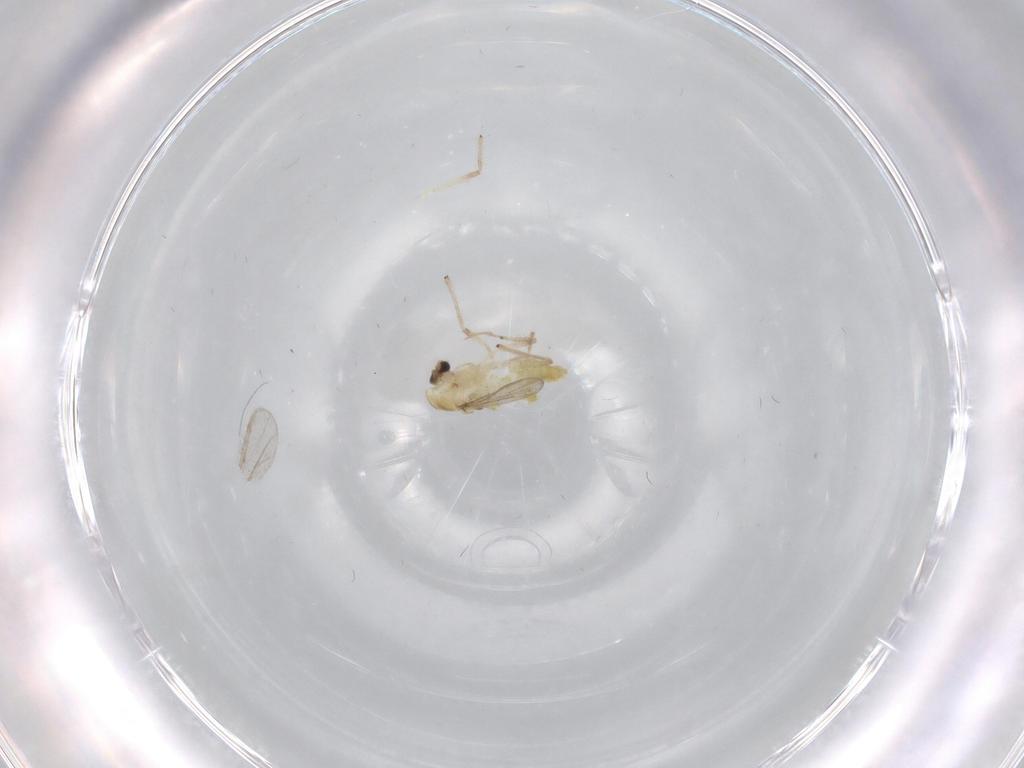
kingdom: Animalia
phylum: Arthropoda
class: Insecta
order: Diptera
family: Chironomidae
